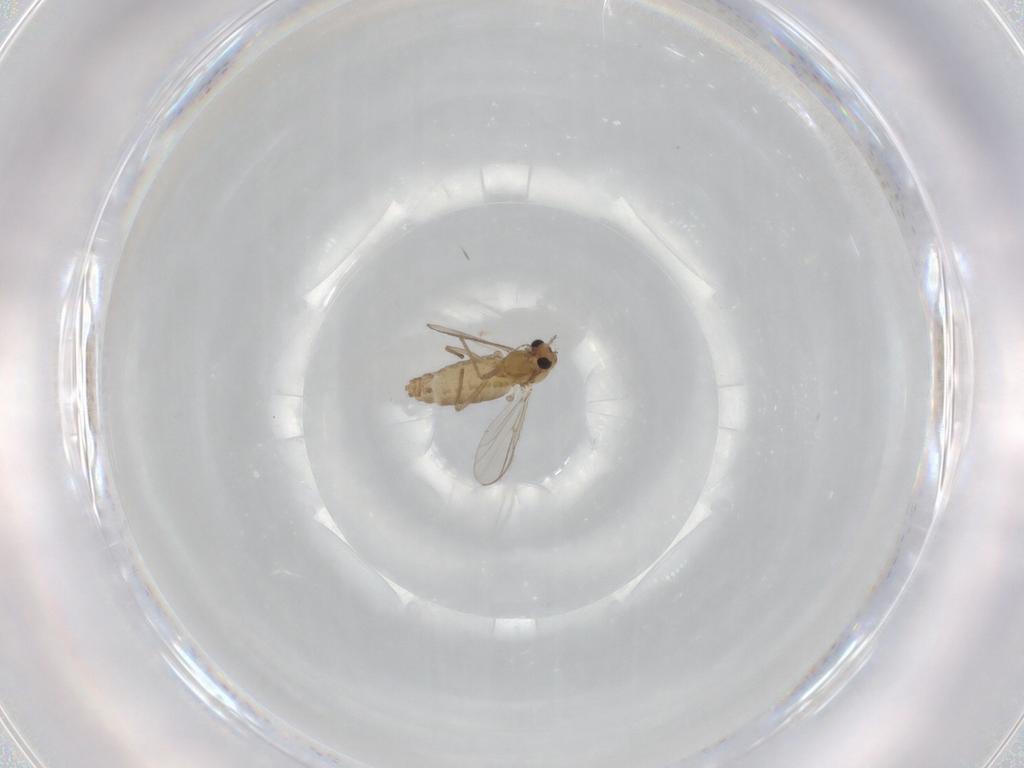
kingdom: Animalia
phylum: Arthropoda
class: Insecta
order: Diptera
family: Chironomidae
